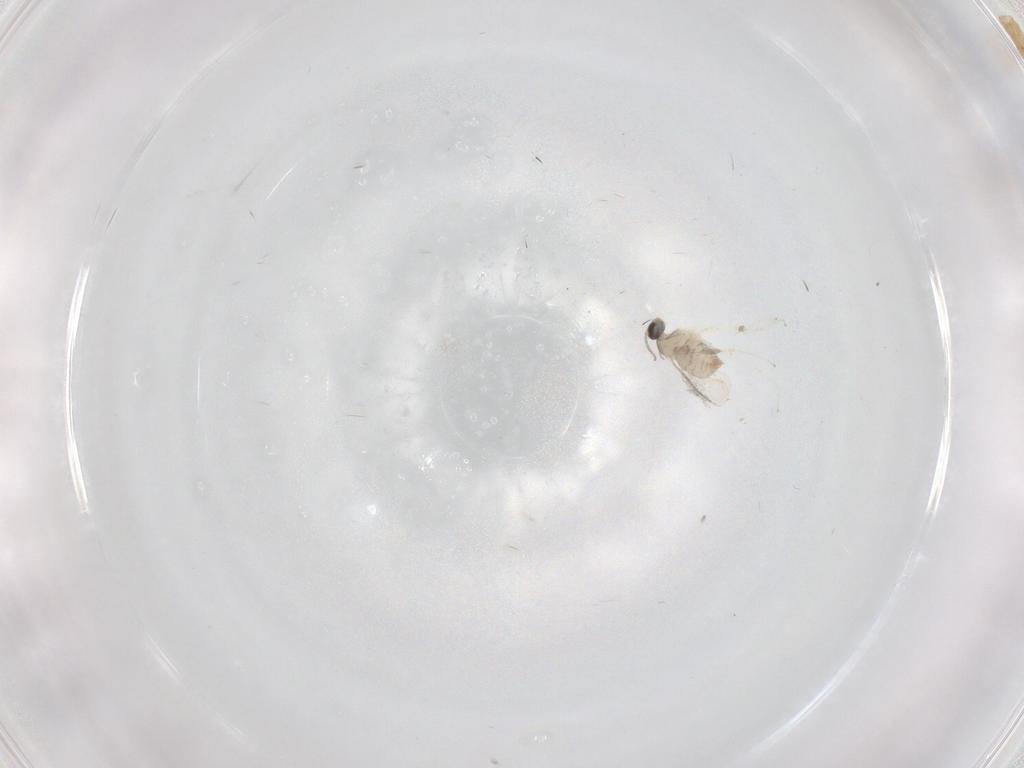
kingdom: Animalia
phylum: Arthropoda
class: Insecta
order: Diptera
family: Cecidomyiidae
